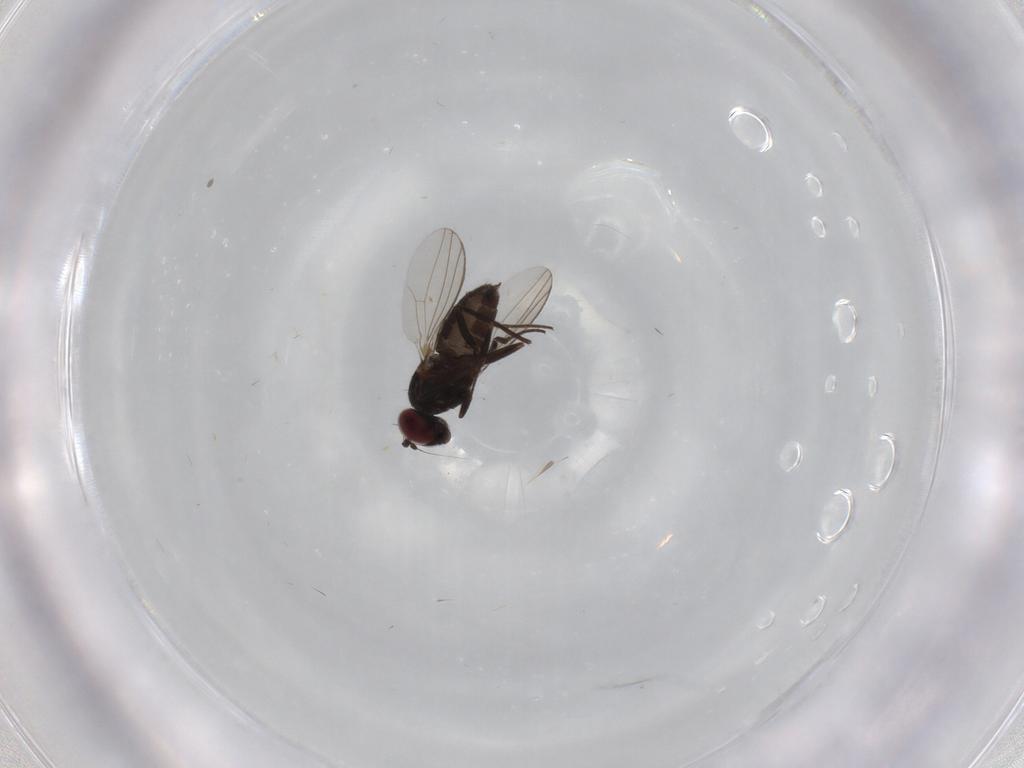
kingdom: Animalia
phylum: Arthropoda
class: Insecta
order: Diptera
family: Dolichopodidae
